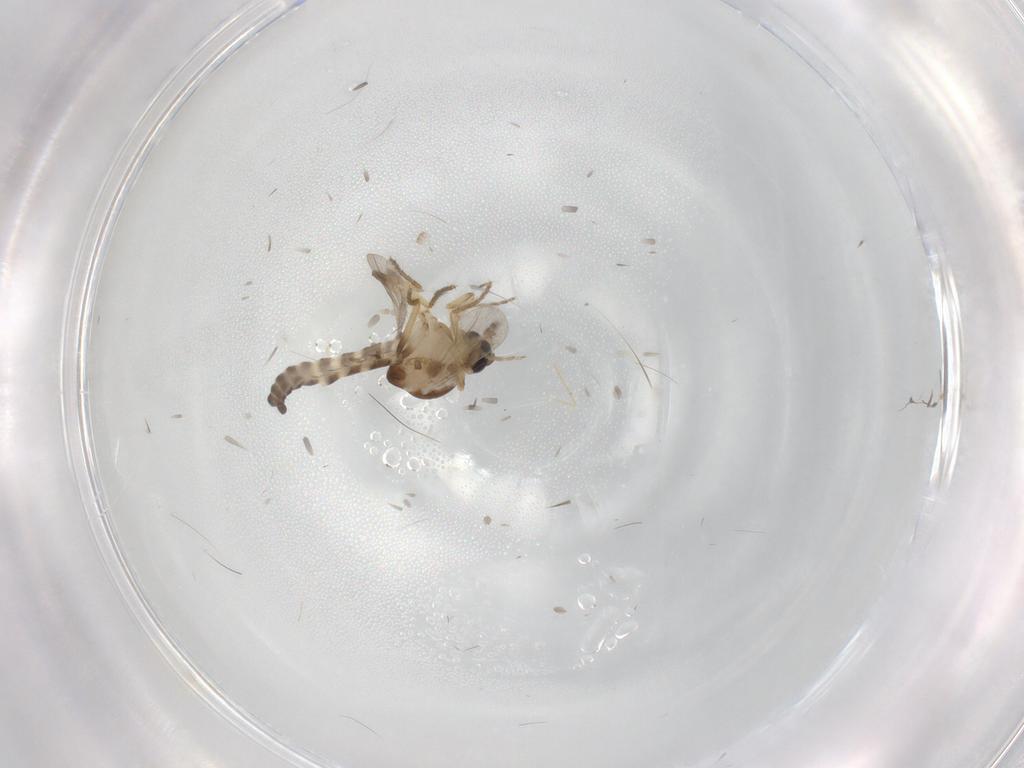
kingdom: Animalia
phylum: Arthropoda
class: Insecta
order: Diptera
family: Ceratopogonidae
